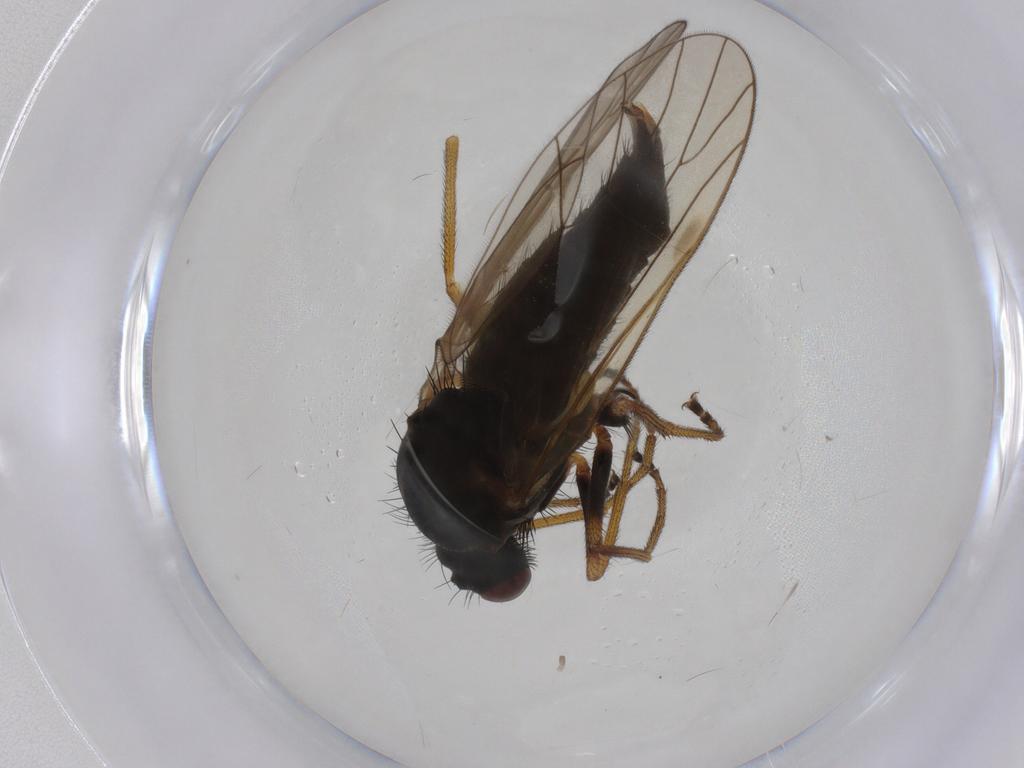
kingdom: Animalia
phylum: Arthropoda
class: Insecta
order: Diptera
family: Brachystomatidae
